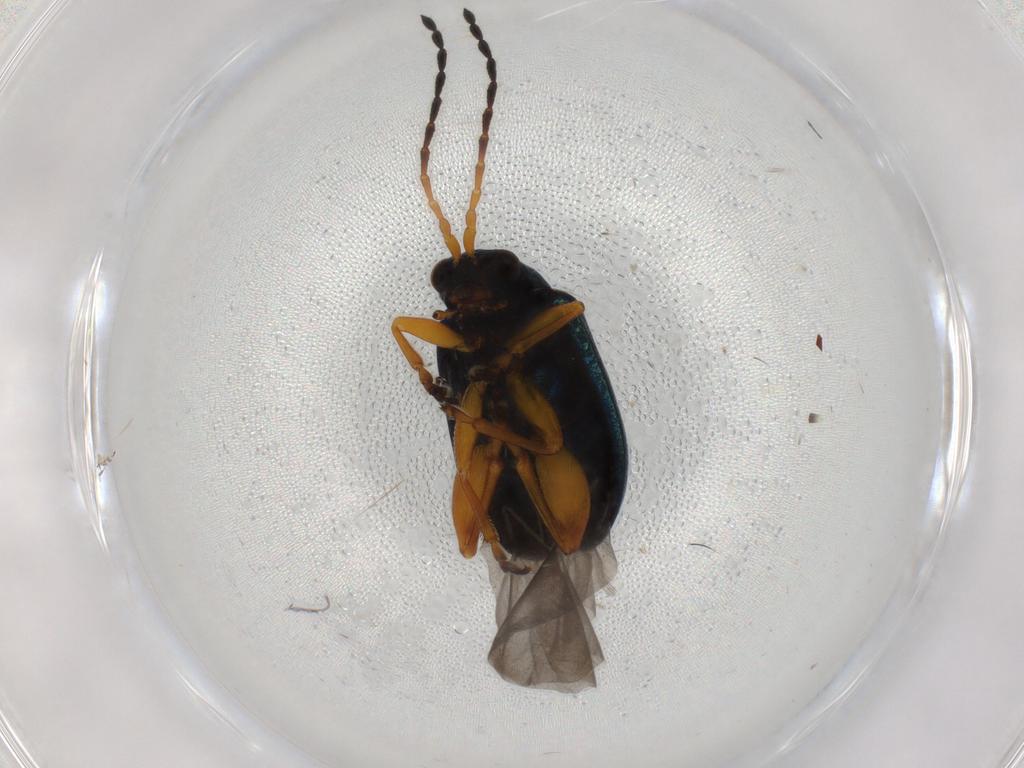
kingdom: Animalia
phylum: Arthropoda
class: Insecta
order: Coleoptera
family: Chrysomelidae
